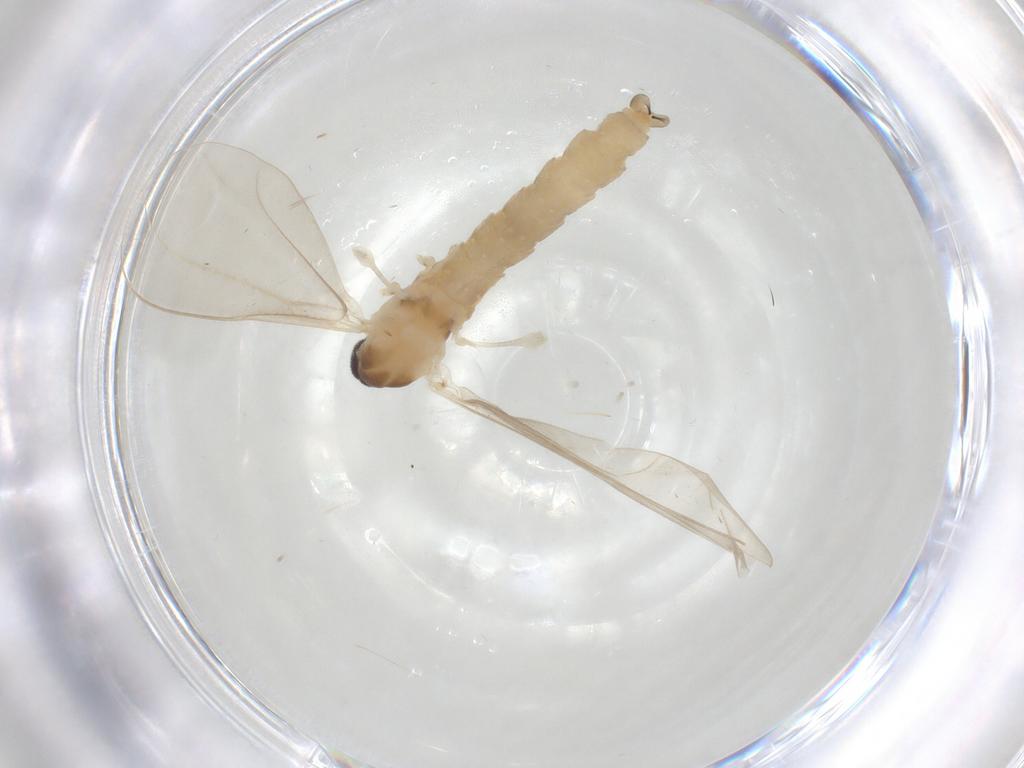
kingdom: Animalia
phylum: Arthropoda
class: Insecta
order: Diptera
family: Cecidomyiidae
